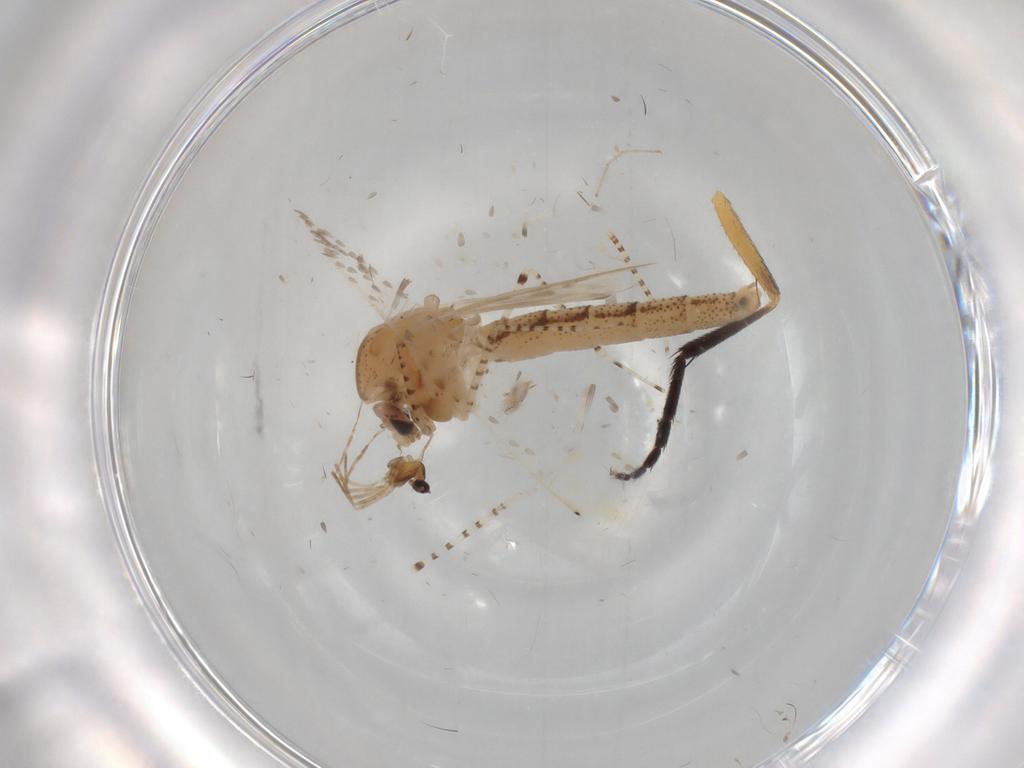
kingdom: Animalia
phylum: Arthropoda
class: Insecta
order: Diptera
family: Chaoboridae
